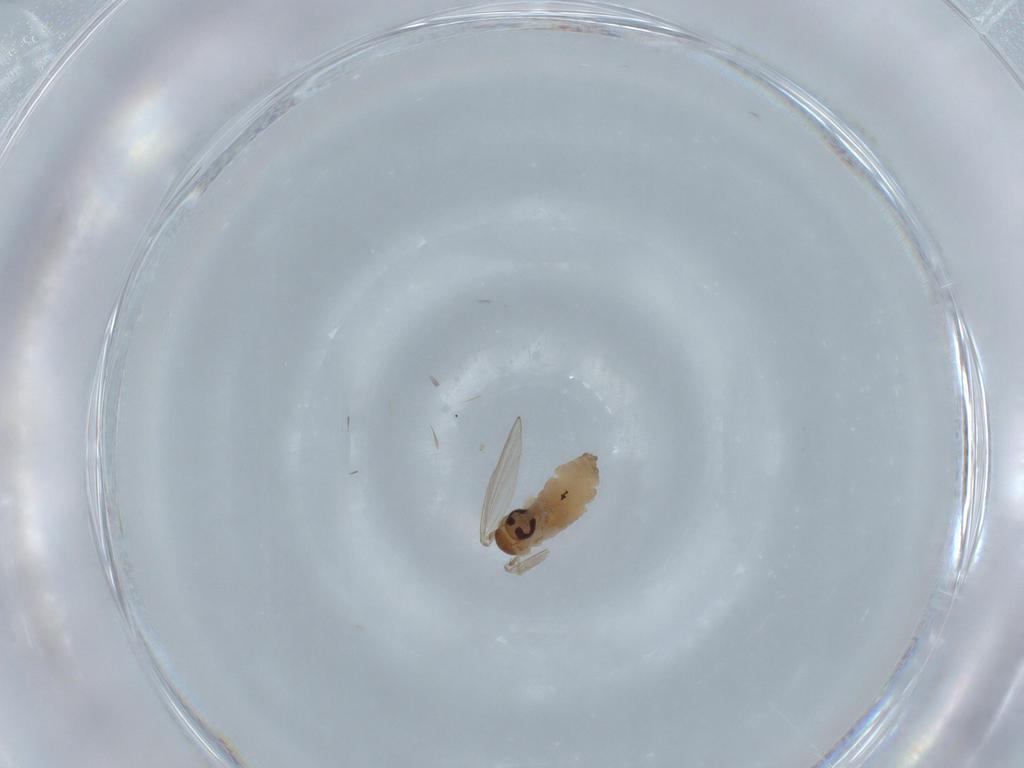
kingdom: Animalia
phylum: Arthropoda
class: Insecta
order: Diptera
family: Psychodidae
